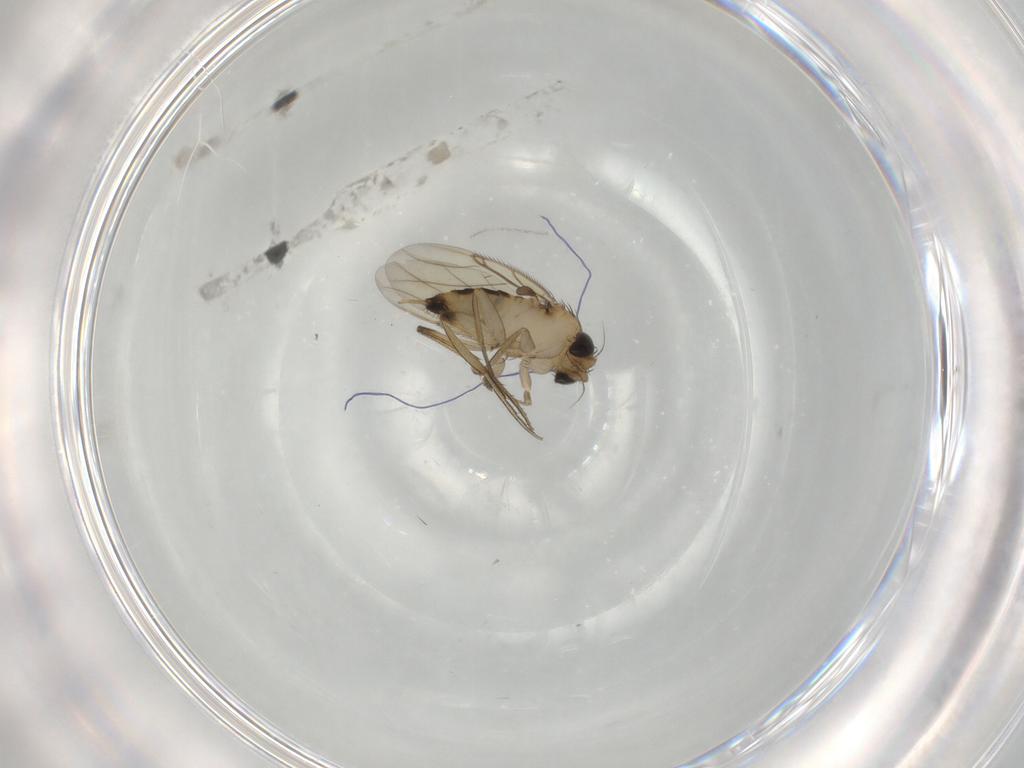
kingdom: Animalia
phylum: Arthropoda
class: Insecta
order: Diptera
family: Phoridae
